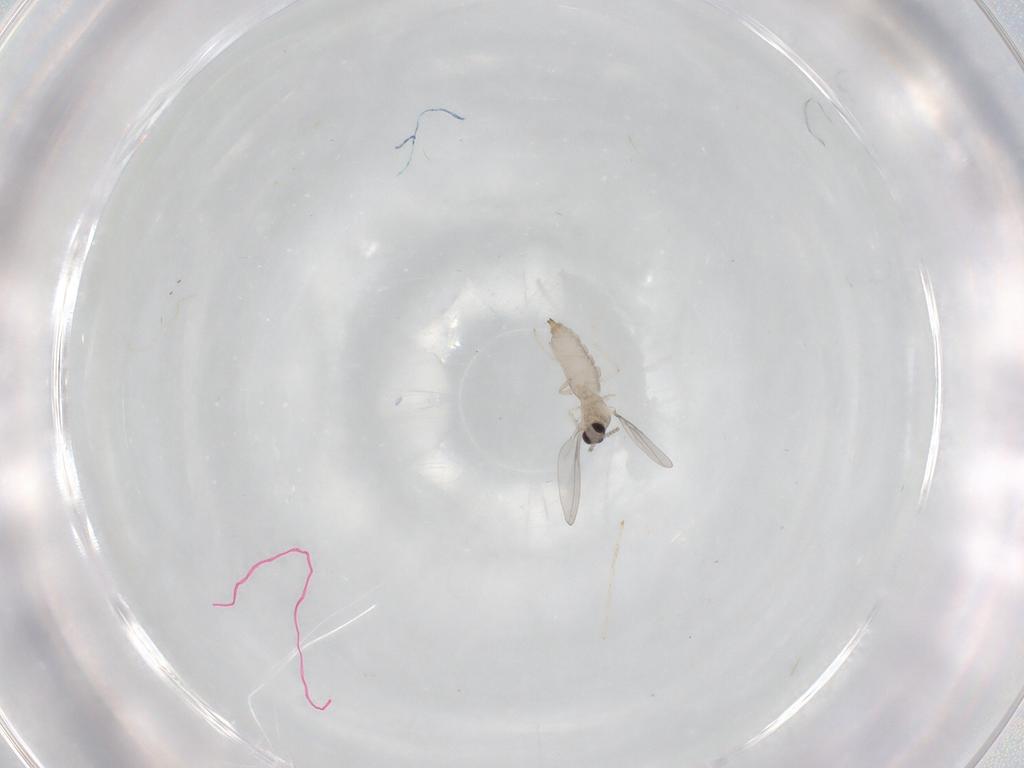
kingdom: Animalia
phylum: Arthropoda
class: Insecta
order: Diptera
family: Cecidomyiidae
